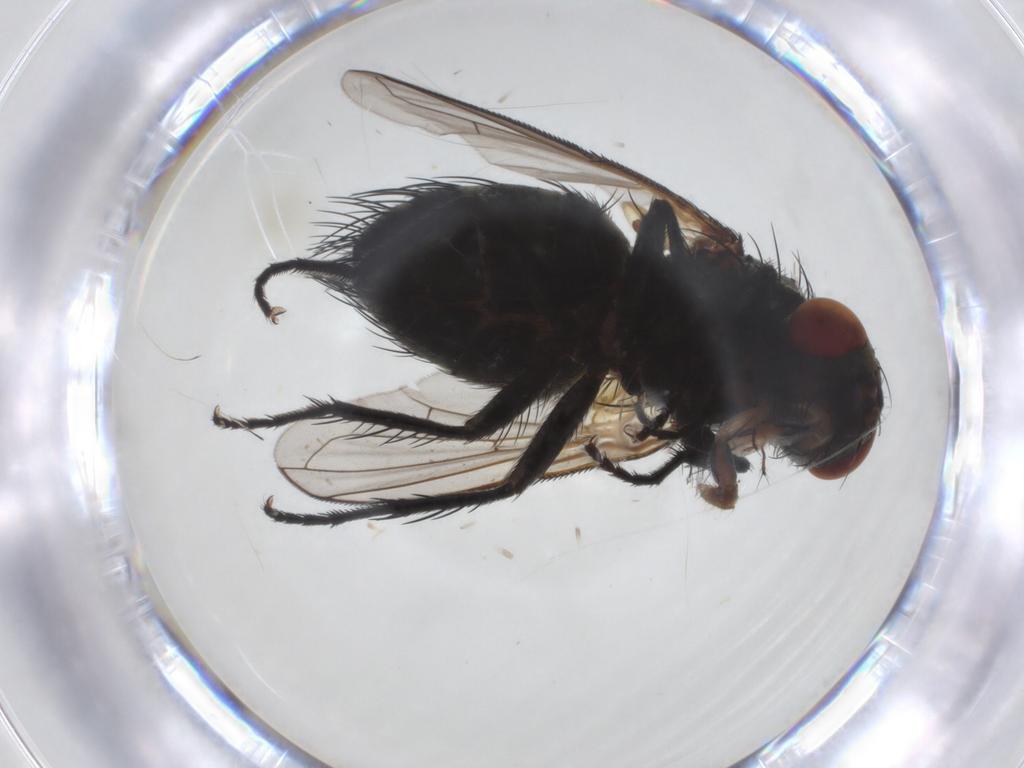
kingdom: Animalia
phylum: Arthropoda
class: Insecta
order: Diptera
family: Tachinidae
